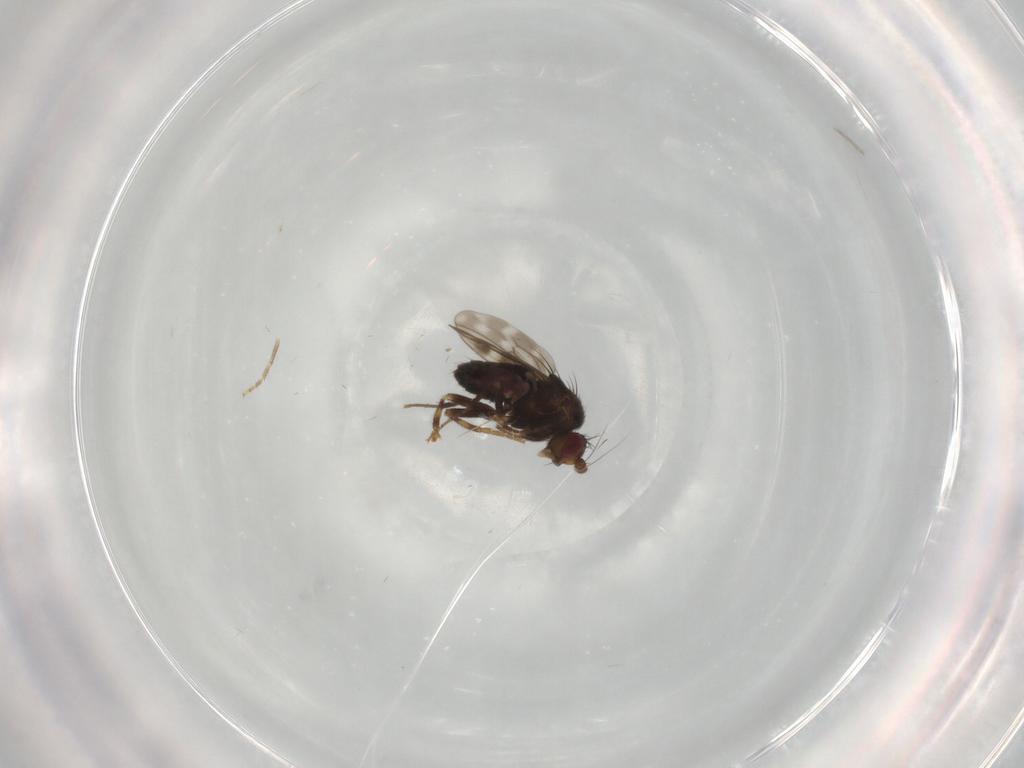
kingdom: Animalia
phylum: Arthropoda
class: Insecta
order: Diptera
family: Sphaeroceridae
